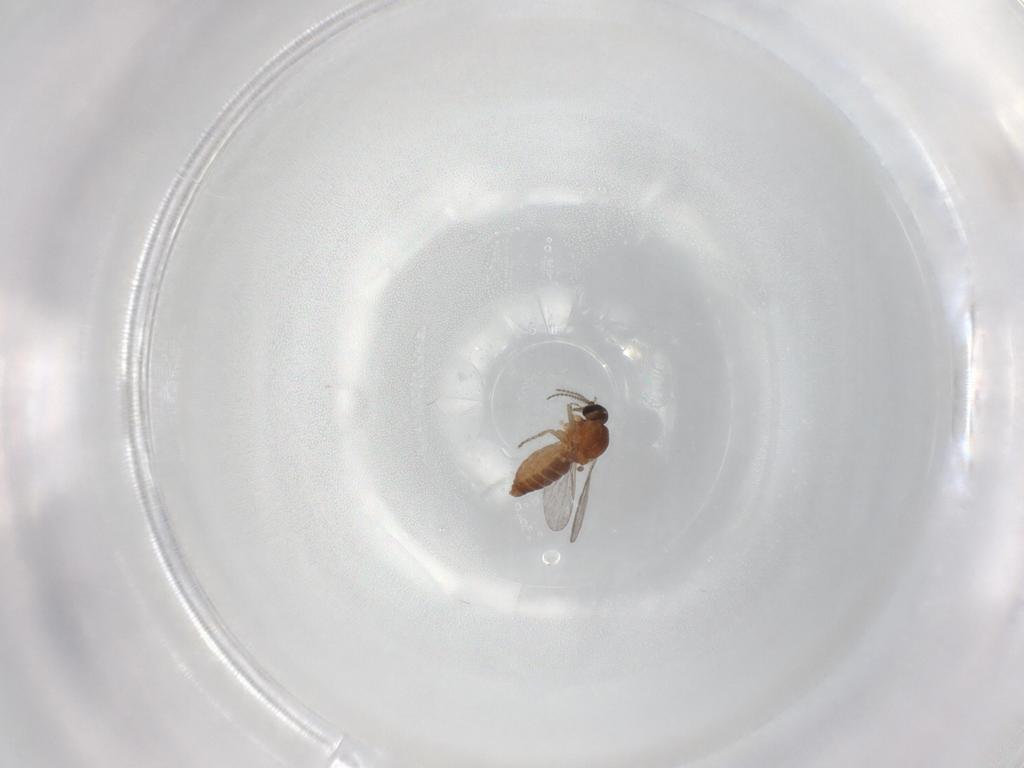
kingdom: Animalia
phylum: Arthropoda
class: Insecta
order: Diptera
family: Ceratopogonidae
